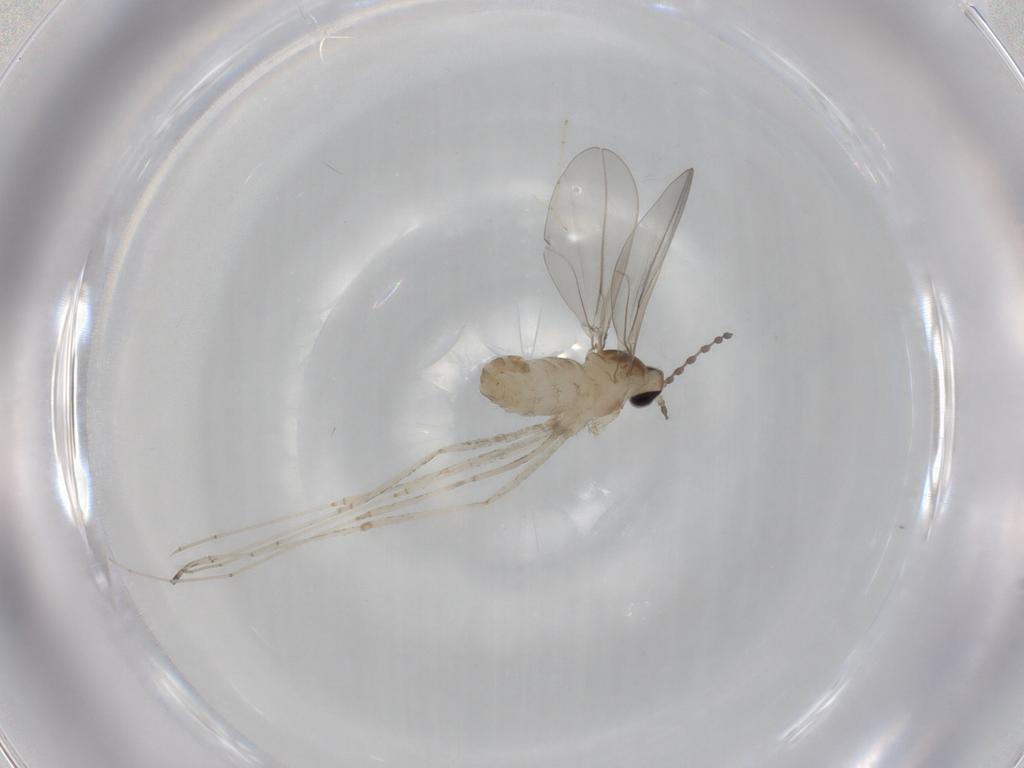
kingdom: Animalia
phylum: Arthropoda
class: Insecta
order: Diptera
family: Cecidomyiidae
